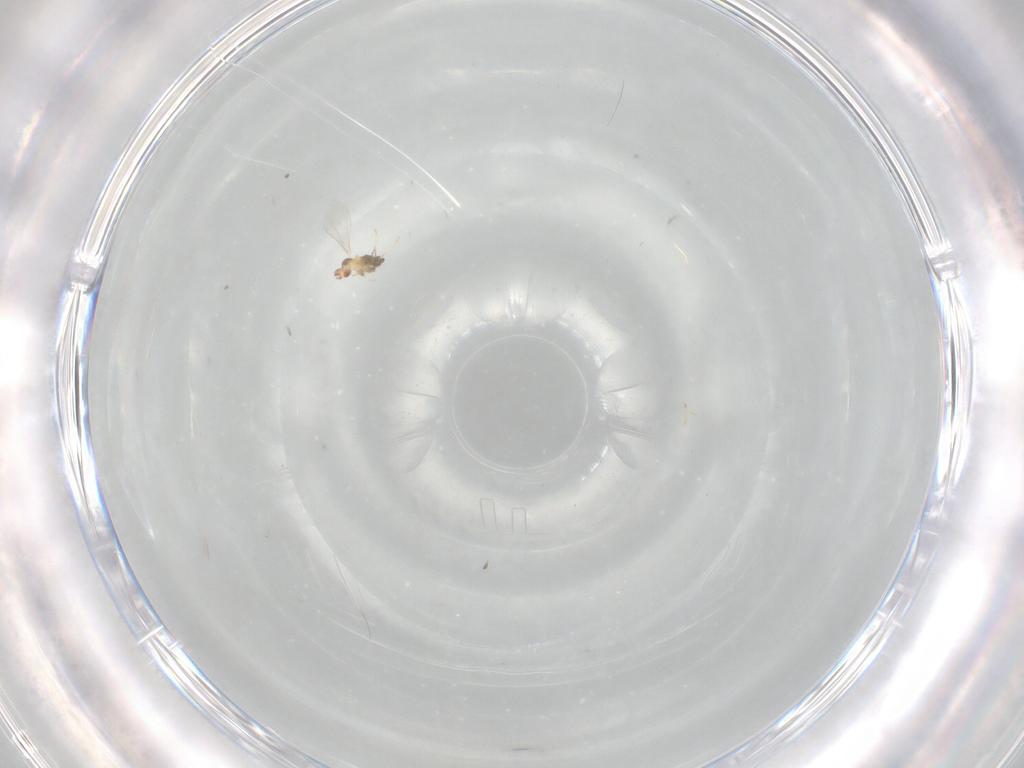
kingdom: Animalia
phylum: Arthropoda
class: Insecta
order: Diptera
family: Cecidomyiidae
